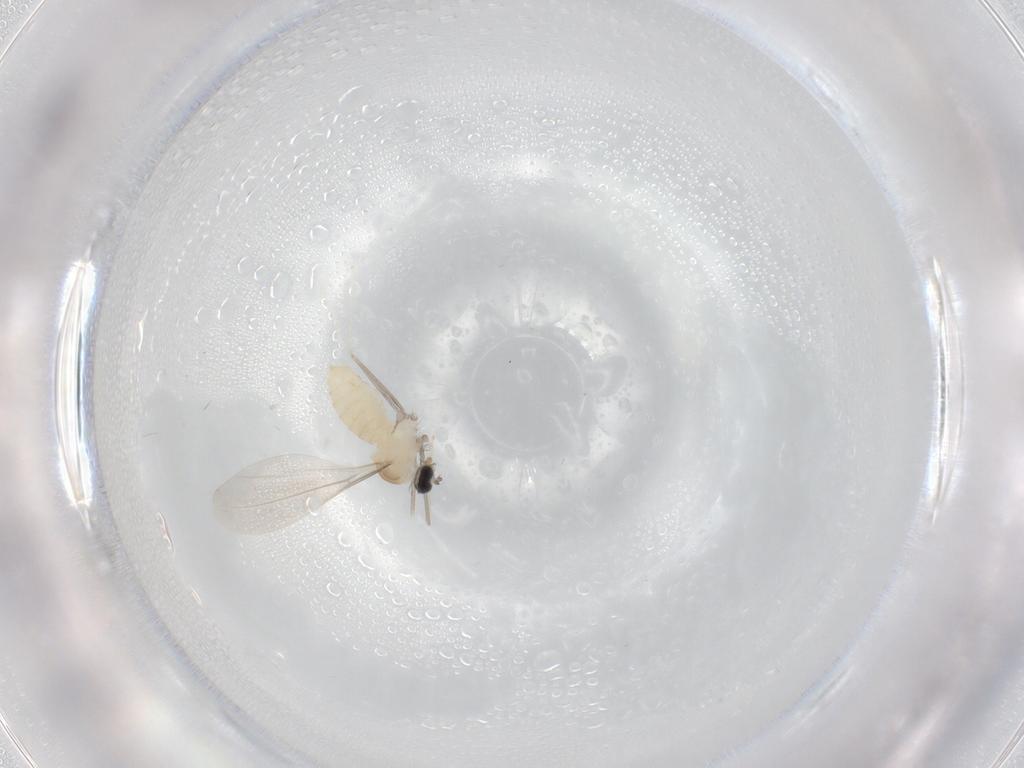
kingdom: Animalia
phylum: Arthropoda
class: Insecta
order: Diptera
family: Cecidomyiidae
